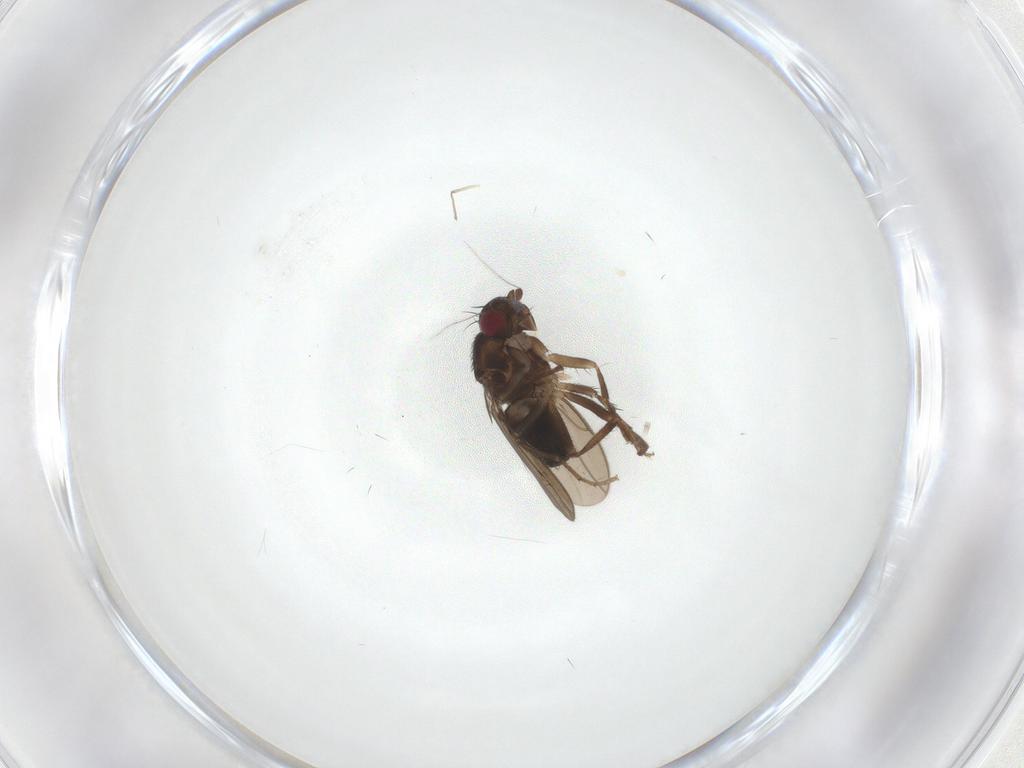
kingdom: Animalia
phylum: Arthropoda
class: Insecta
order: Diptera
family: Sphaeroceridae
